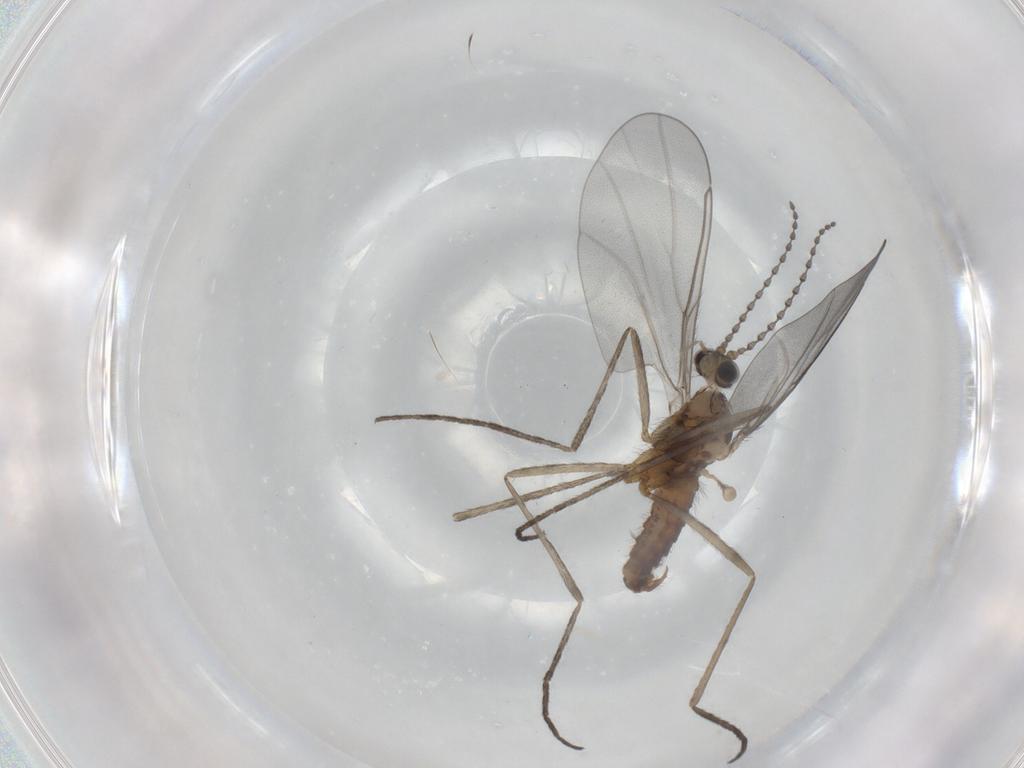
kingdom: Animalia
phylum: Arthropoda
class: Insecta
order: Diptera
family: Cecidomyiidae
